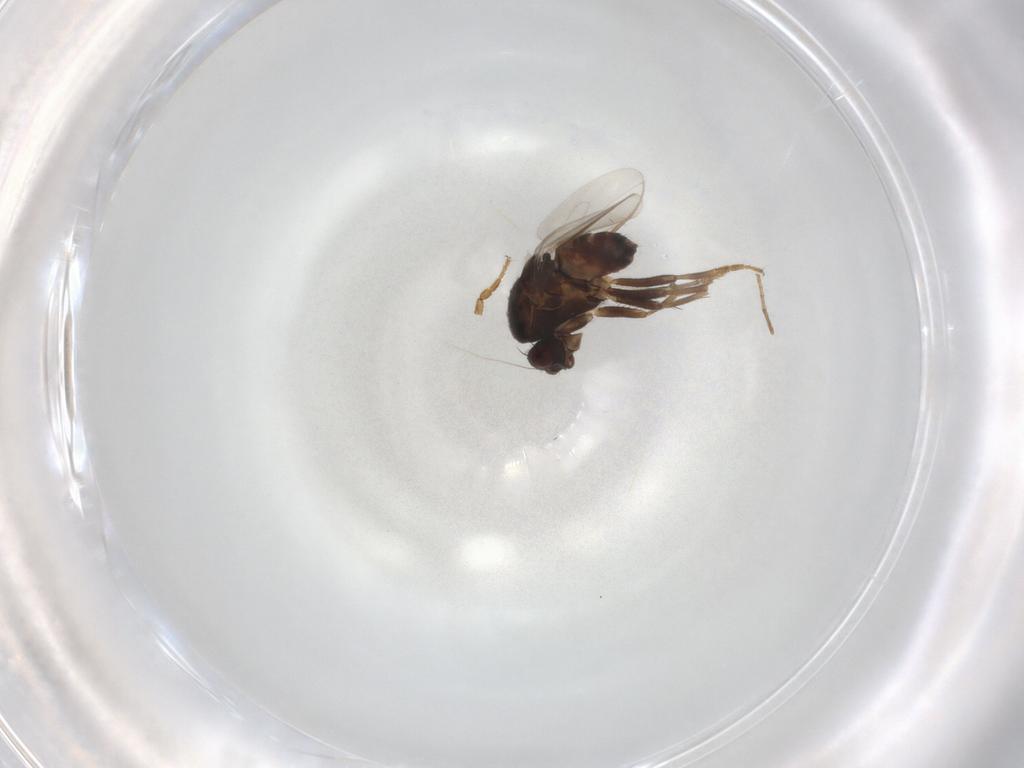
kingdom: Animalia
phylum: Arthropoda
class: Insecta
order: Diptera
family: Sphaeroceridae
